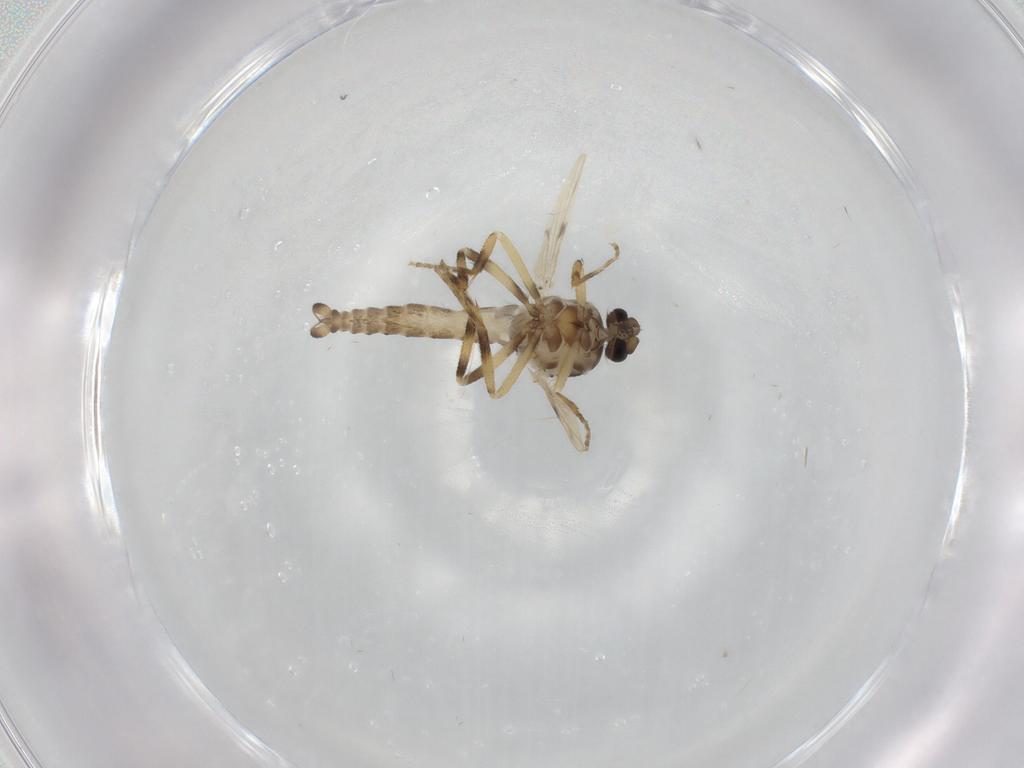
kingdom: Animalia
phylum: Arthropoda
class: Insecta
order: Diptera
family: Ceratopogonidae
